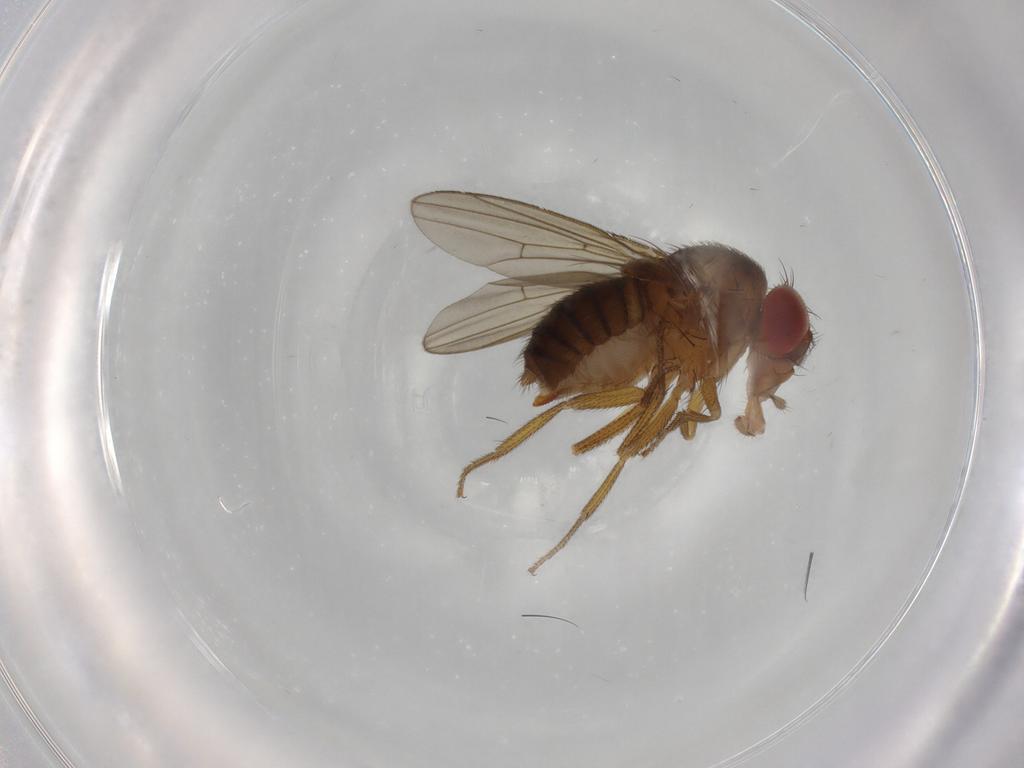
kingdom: Animalia
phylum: Arthropoda
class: Insecta
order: Diptera
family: Drosophilidae
